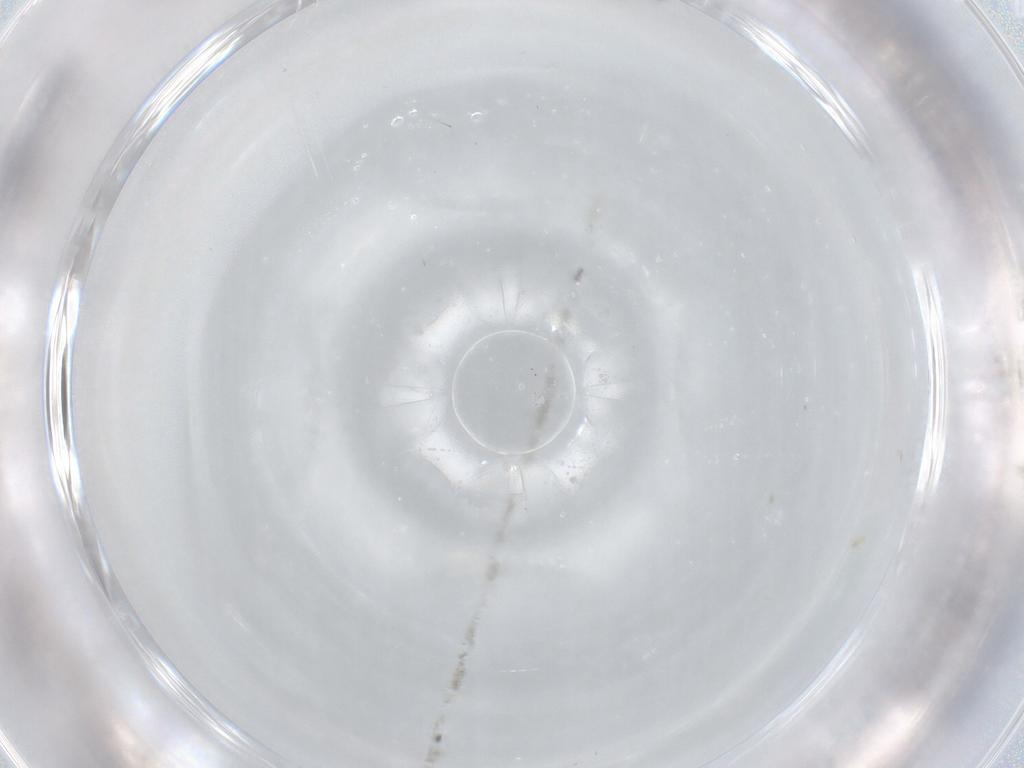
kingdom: Animalia
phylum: Arthropoda
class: Insecta
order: Diptera
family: Cecidomyiidae
